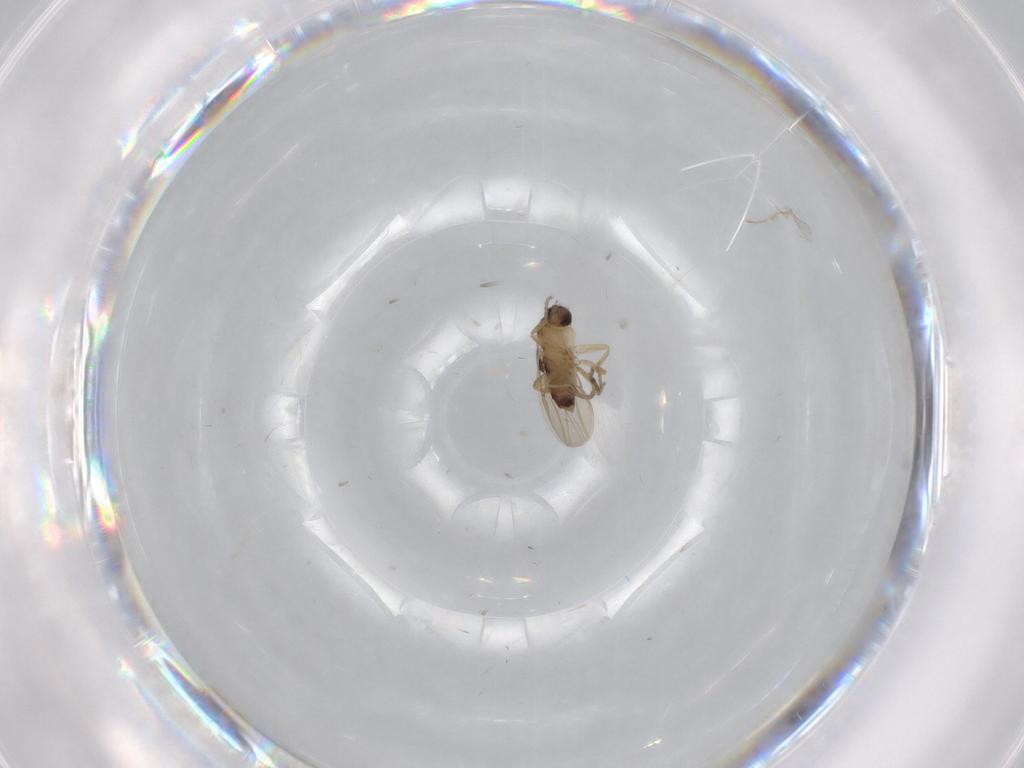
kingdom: Animalia
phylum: Arthropoda
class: Insecta
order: Diptera
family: Cecidomyiidae
